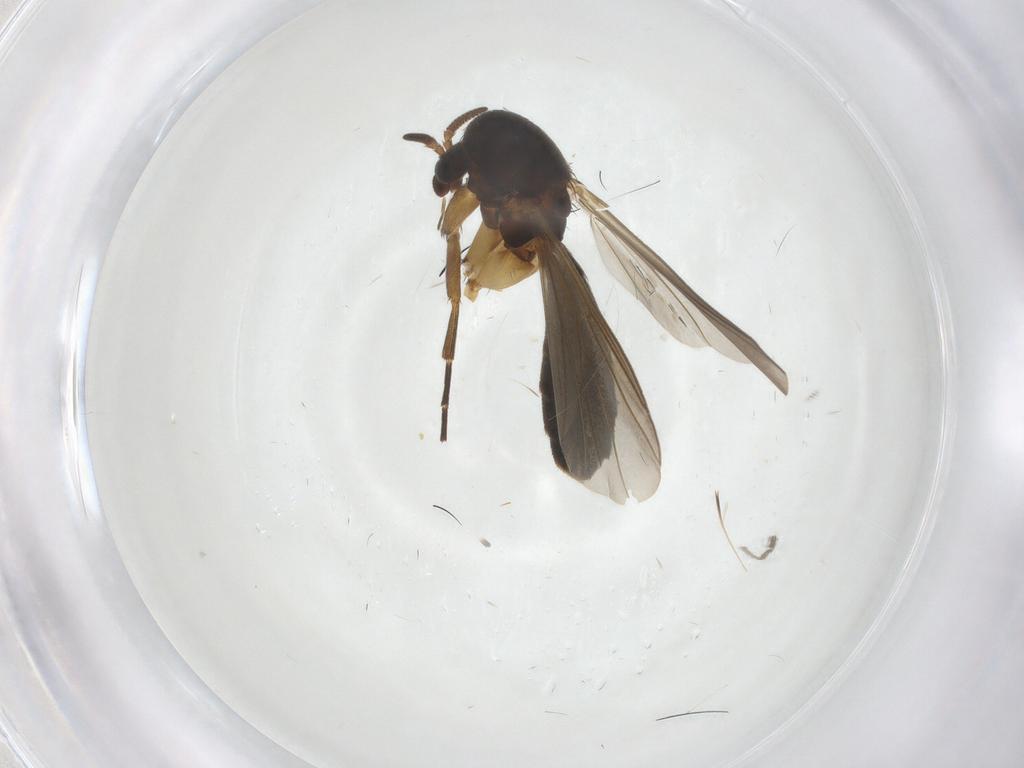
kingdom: Animalia
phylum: Arthropoda
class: Insecta
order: Diptera
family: Mycetophilidae
